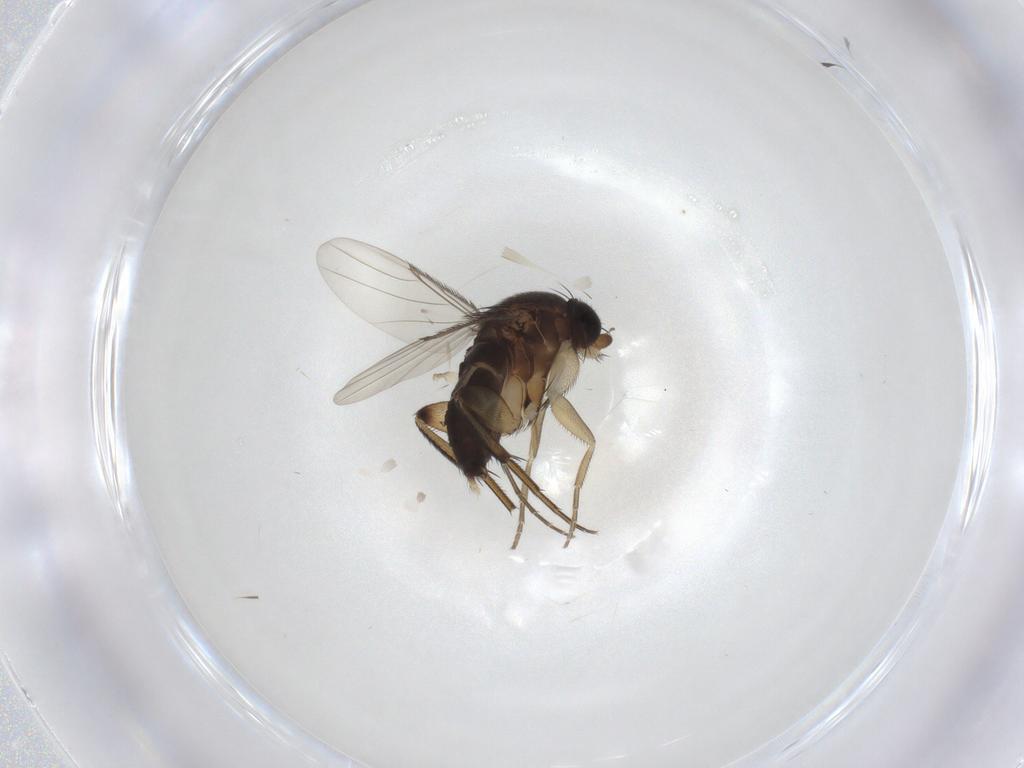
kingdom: Animalia
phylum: Arthropoda
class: Insecta
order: Diptera
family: Phoridae
